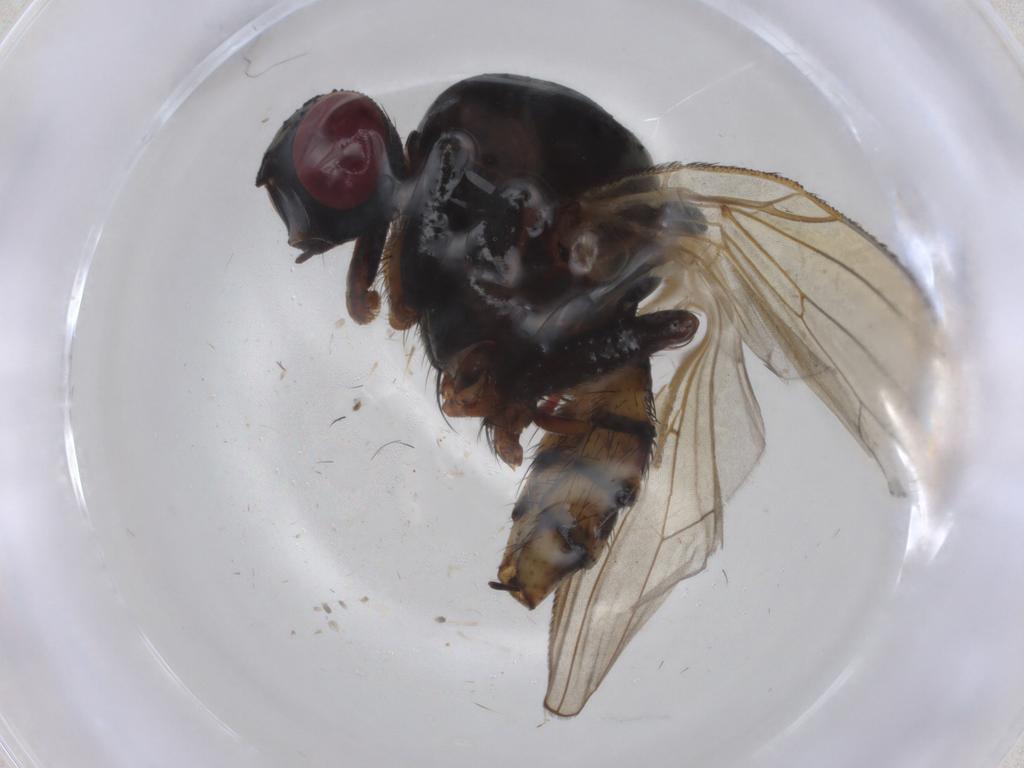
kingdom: Animalia
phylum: Arthropoda
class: Insecta
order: Diptera
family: Anthomyiidae
